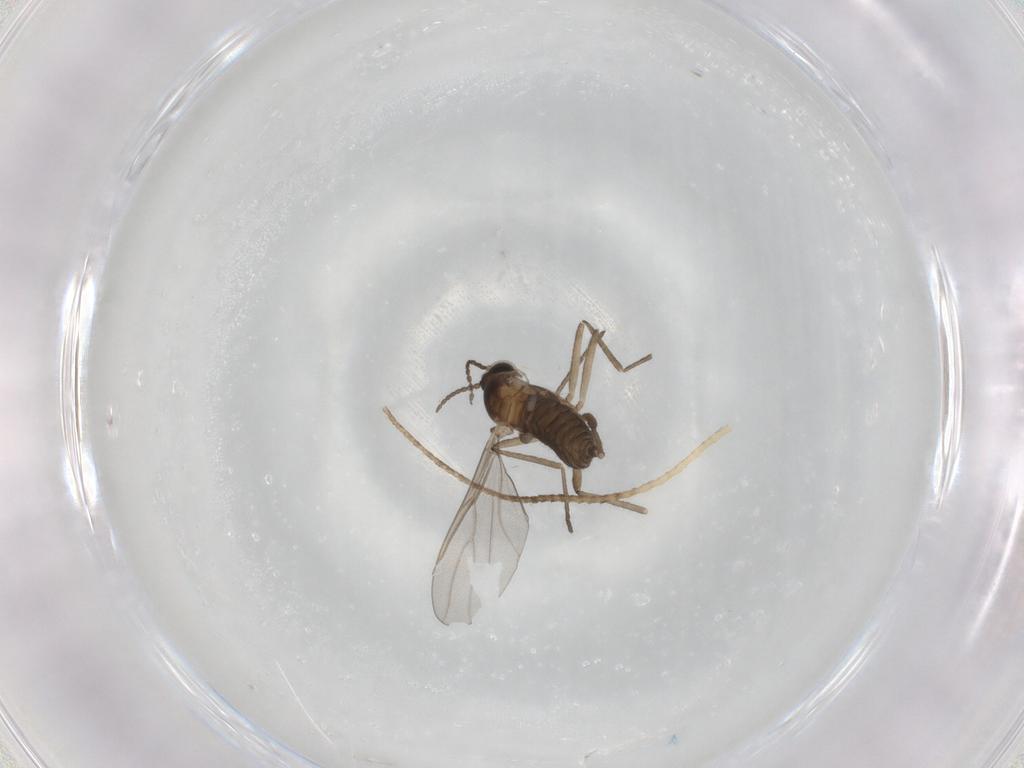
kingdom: Animalia
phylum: Arthropoda
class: Insecta
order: Diptera
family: Cecidomyiidae
